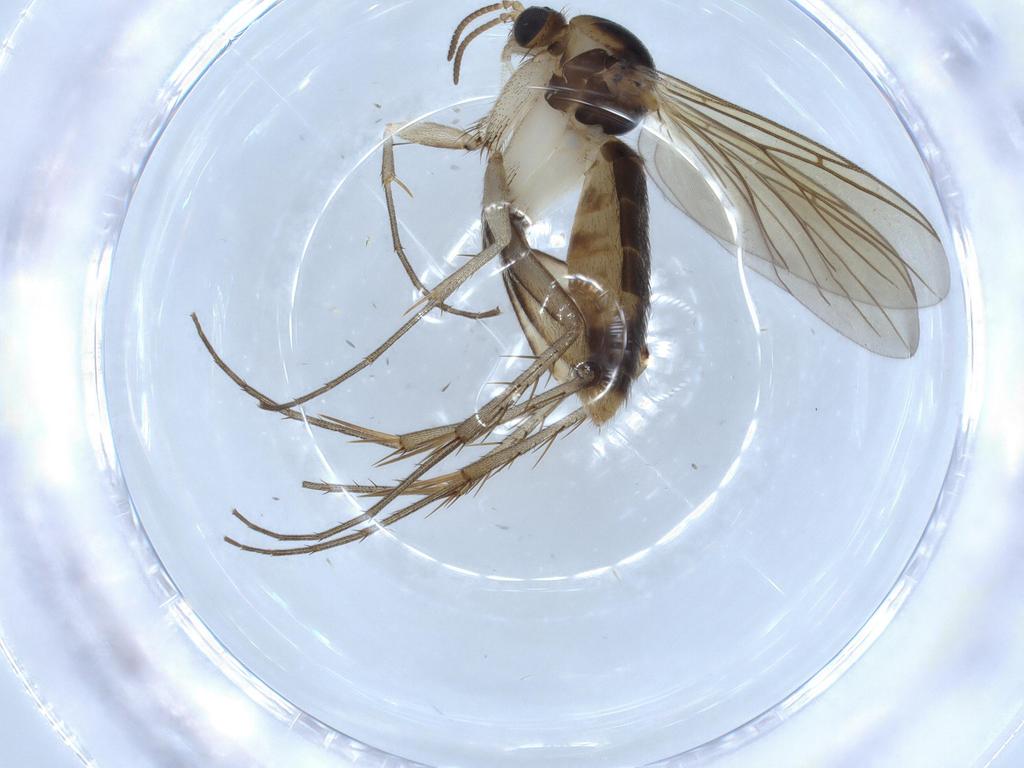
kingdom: Animalia
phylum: Arthropoda
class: Insecta
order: Diptera
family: Mycetophilidae
